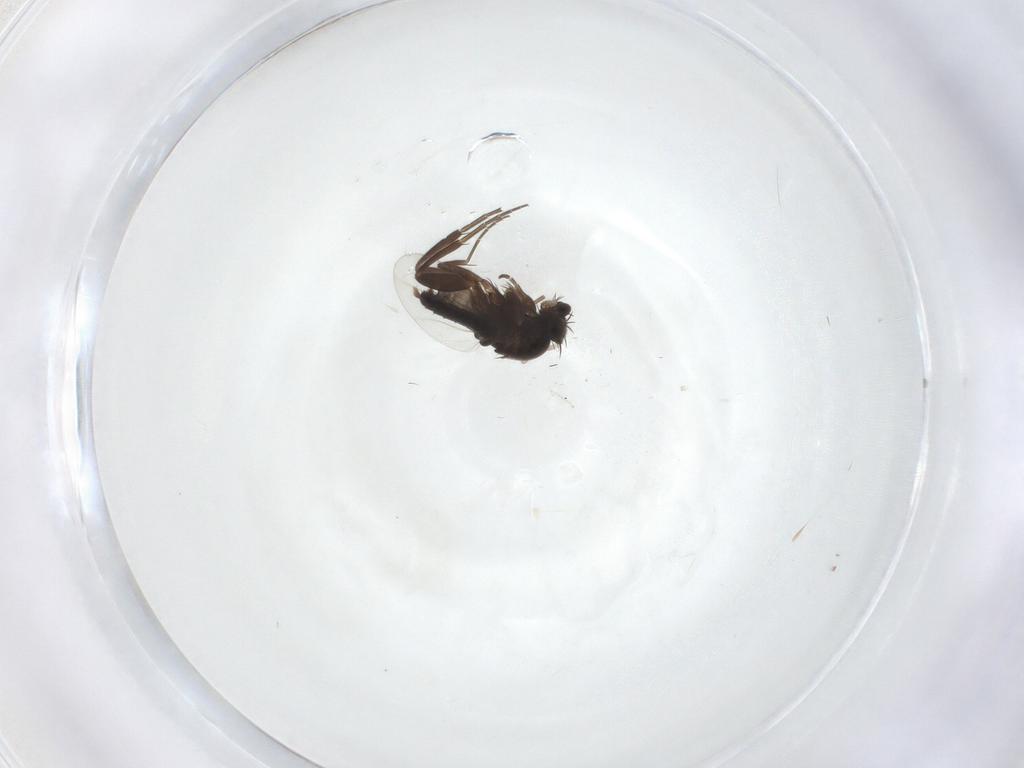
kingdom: Animalia
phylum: Arthropoda
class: Insecta
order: Diptera
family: Phoridae
